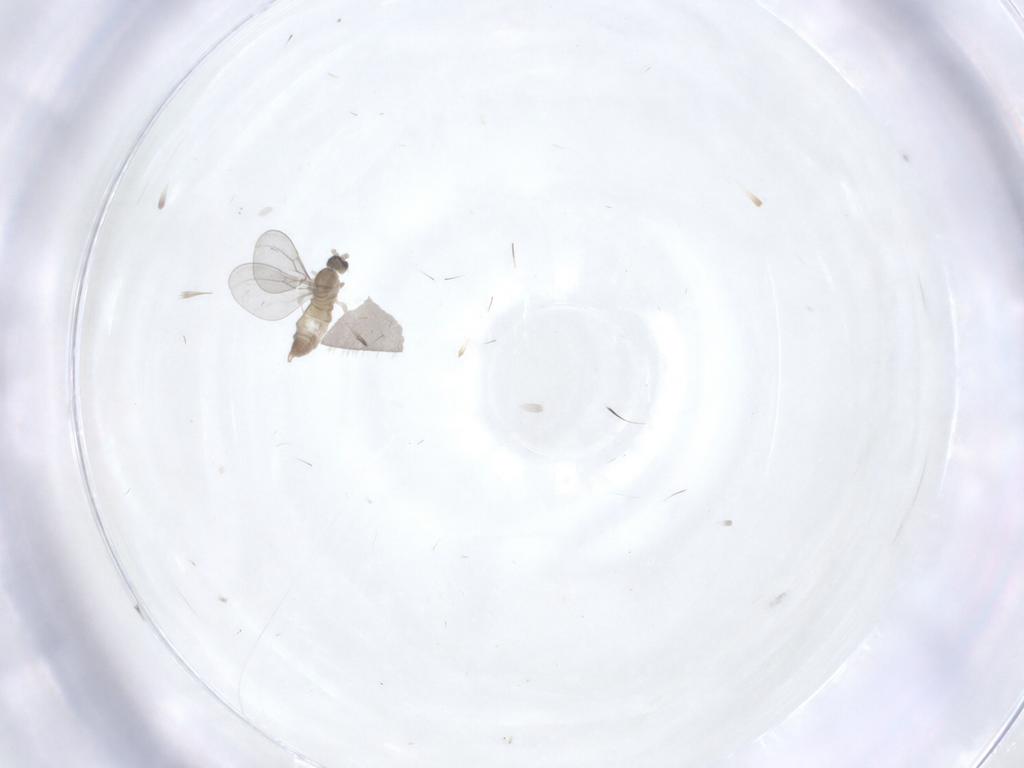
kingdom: Animalia
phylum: Arthropoda
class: Insecta
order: Diptera
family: Cecidomyiidae
